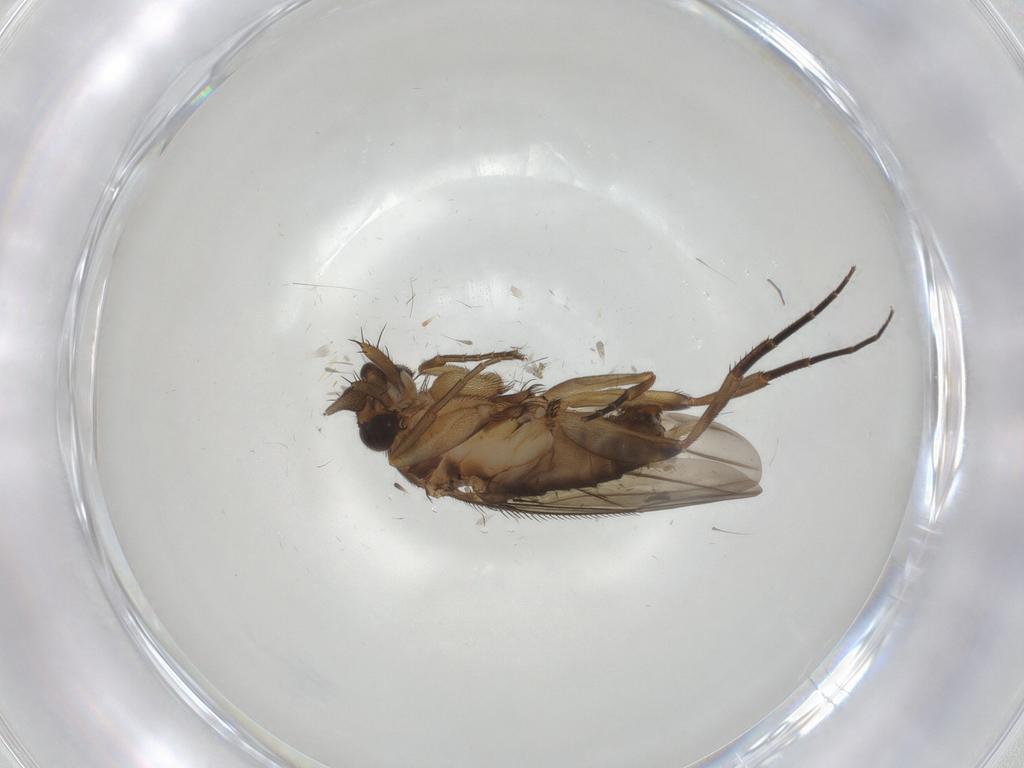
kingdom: Animalia
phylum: Arthropoda
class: Insecta
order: Diptera
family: Phoridae
